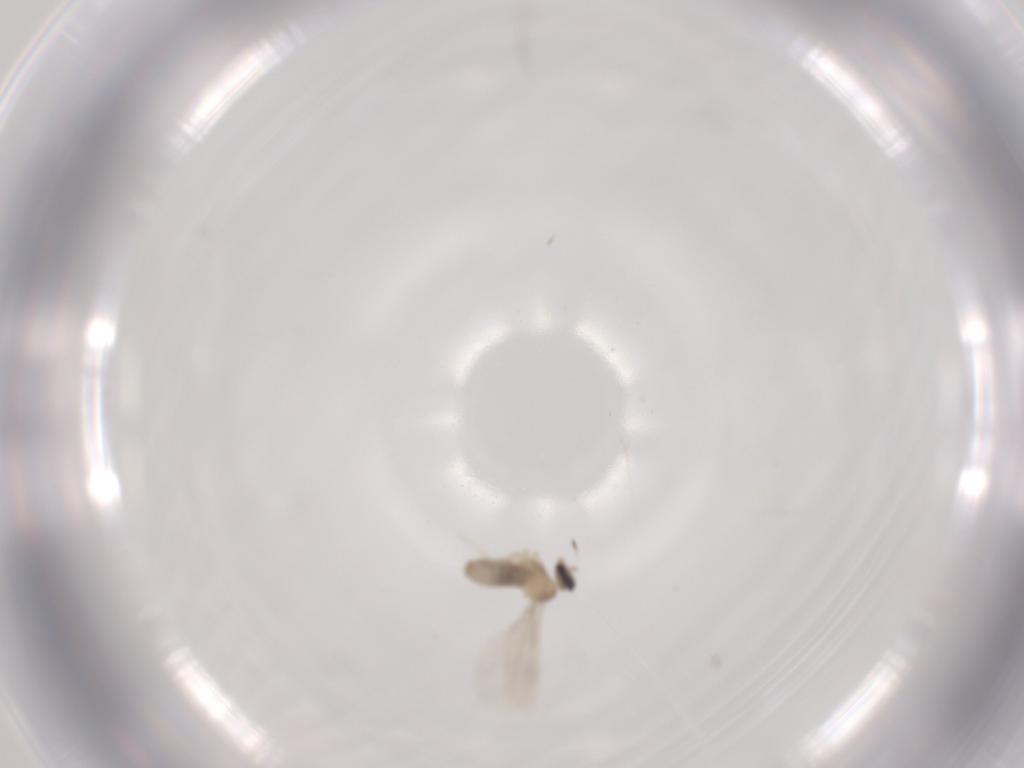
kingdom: Animalia
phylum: Arthropoda
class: Insecta
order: Diptera
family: Cecidomyiidae
